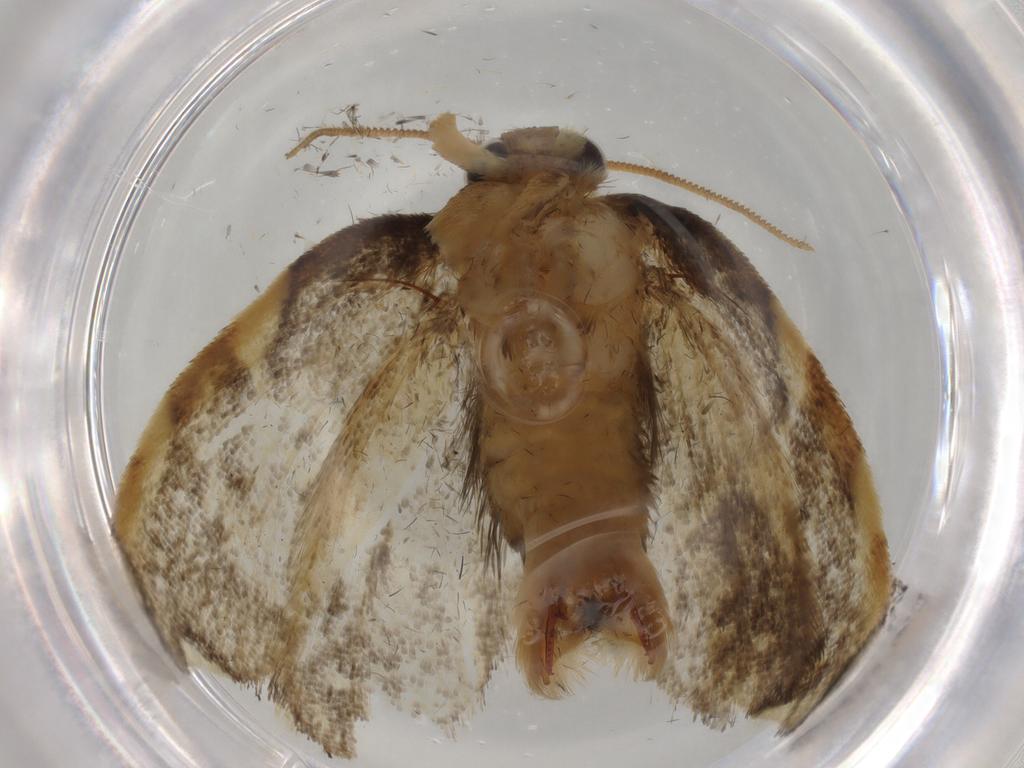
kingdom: Animalia
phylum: Arthropoda
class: Insecta
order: Lepidoptera
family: Psychidae
